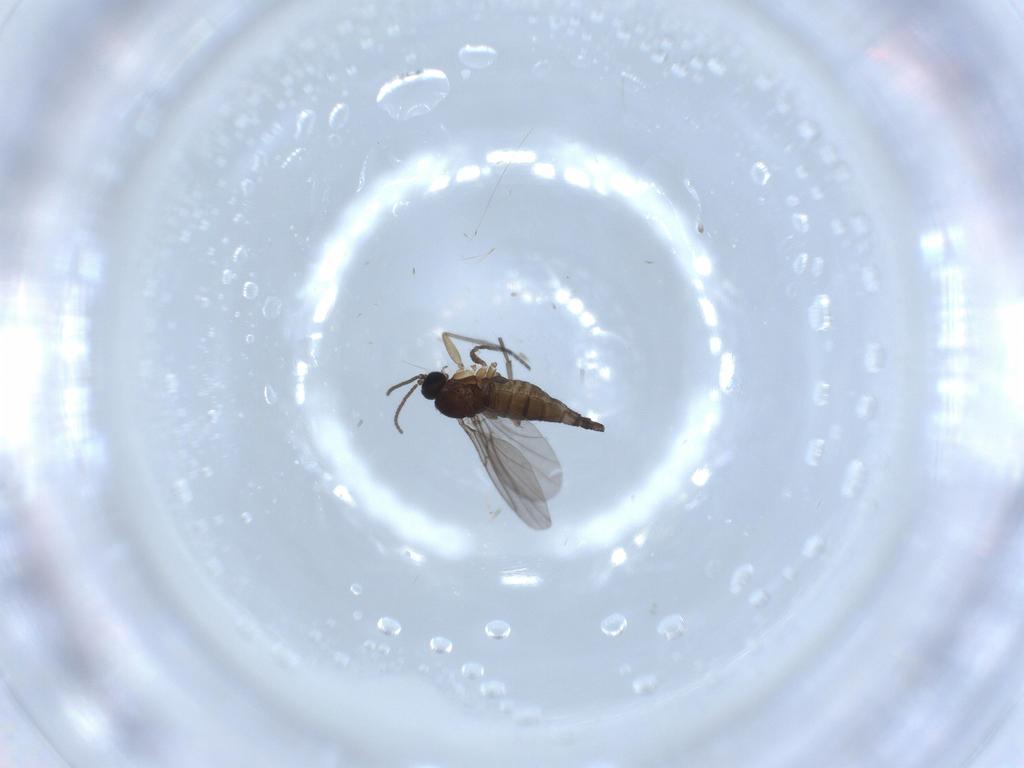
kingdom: Animalia
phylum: Arthropoda
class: Insecta
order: Diptera
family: Sciaridae
